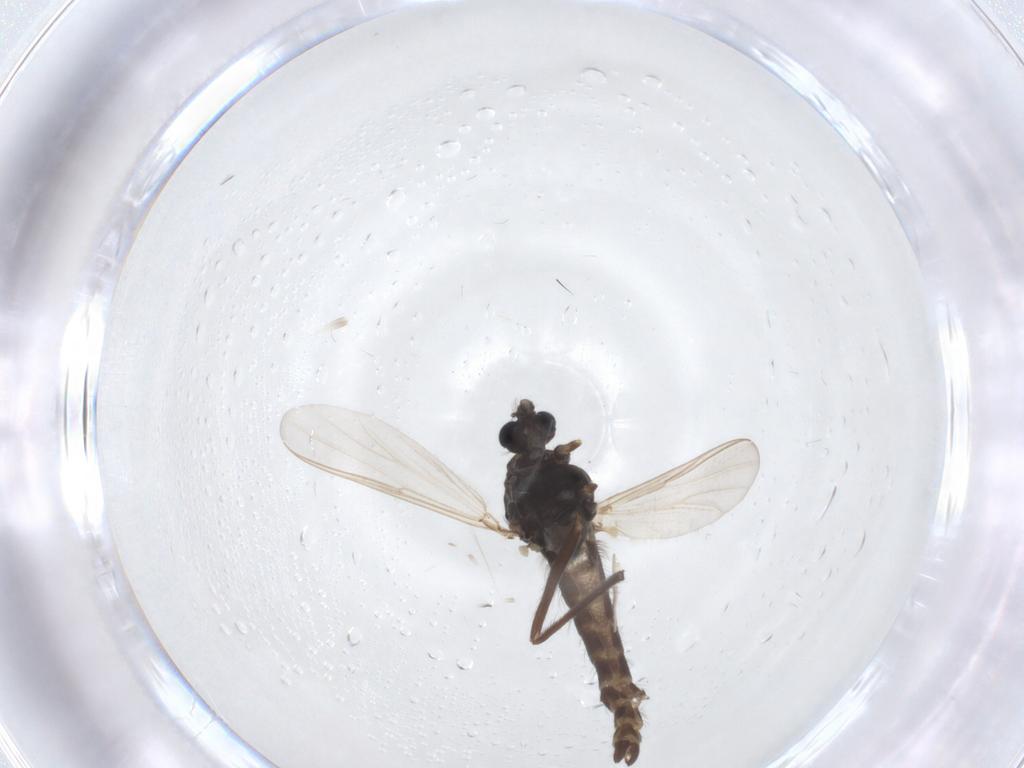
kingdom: Animalia
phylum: Arthropoda
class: Insecta
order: Diptera
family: Chironomidae
